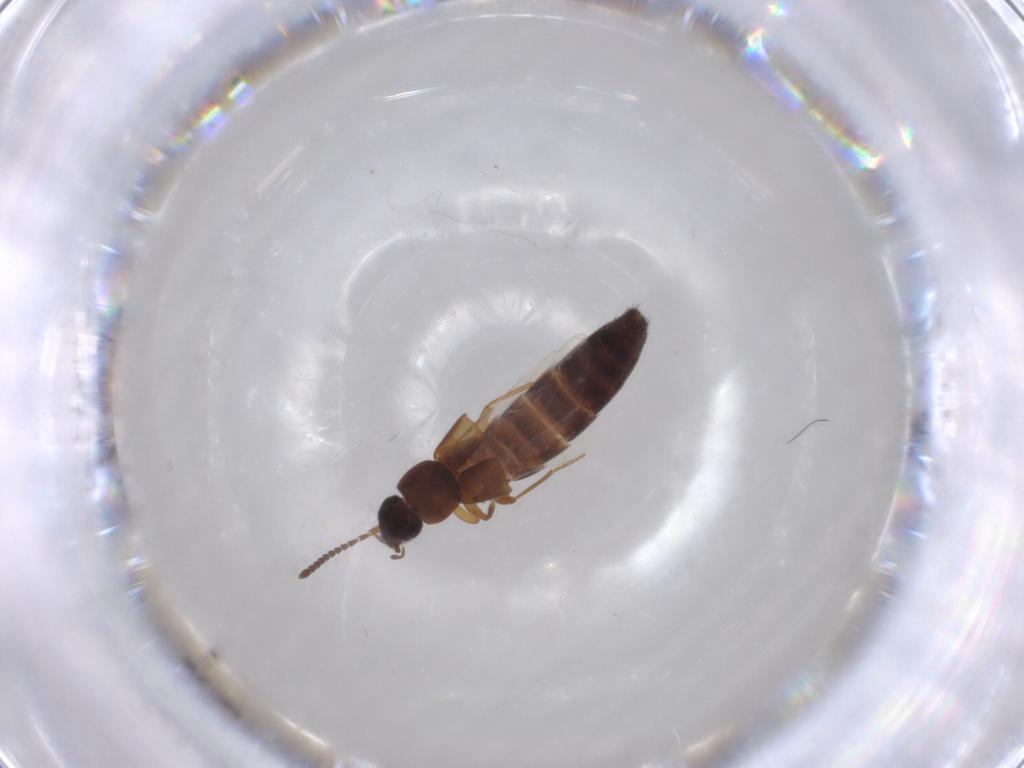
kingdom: Animalia
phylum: Arthropoda
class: Insecta
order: Coleoptera
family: Staphylinidae
